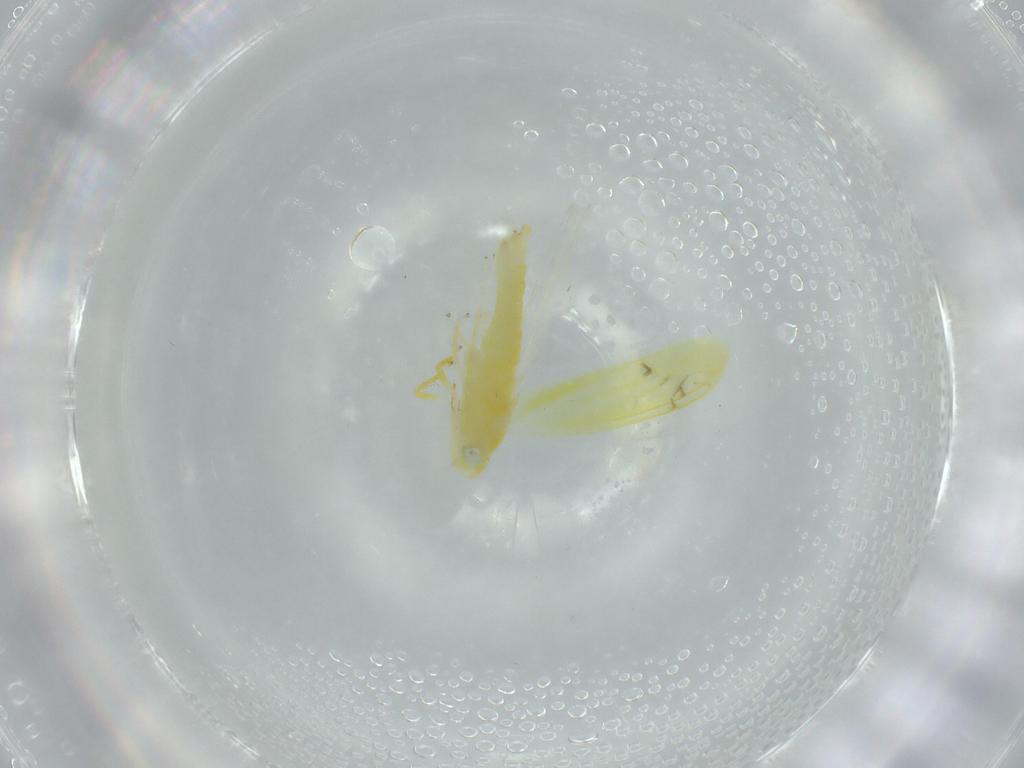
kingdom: Animalia
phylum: Arthropoda
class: Insecta
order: Hemiptera
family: Cicadellidae
